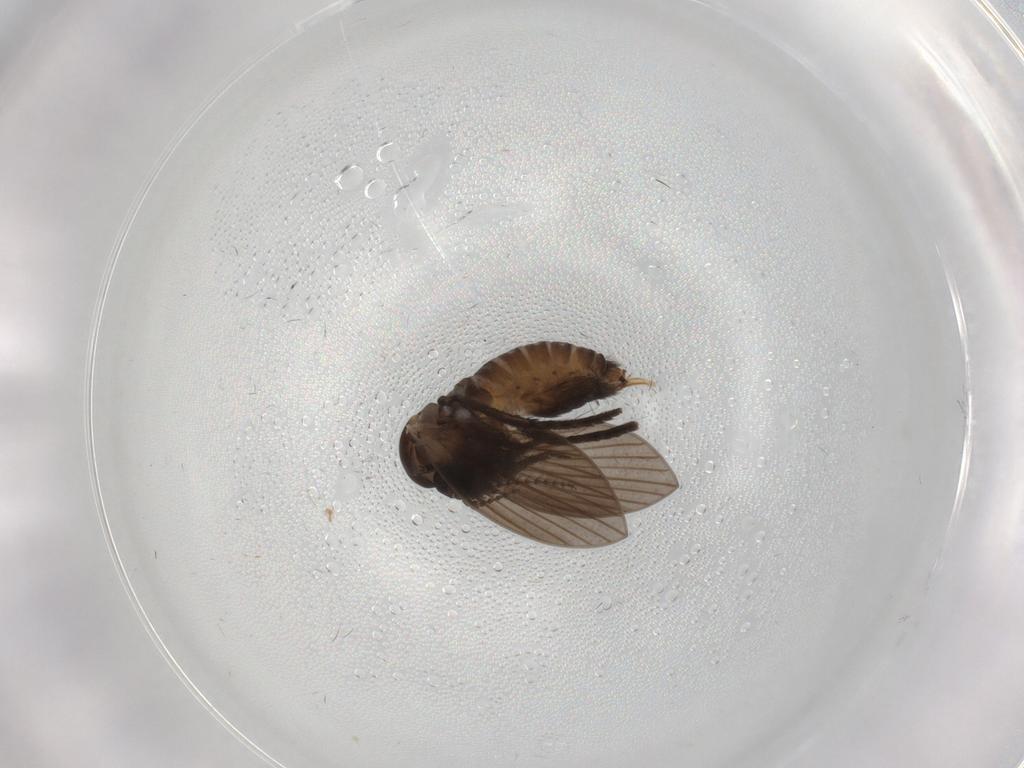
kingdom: Animalia
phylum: Arthropoda
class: Insecta
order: Diptera
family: Psychodidae
